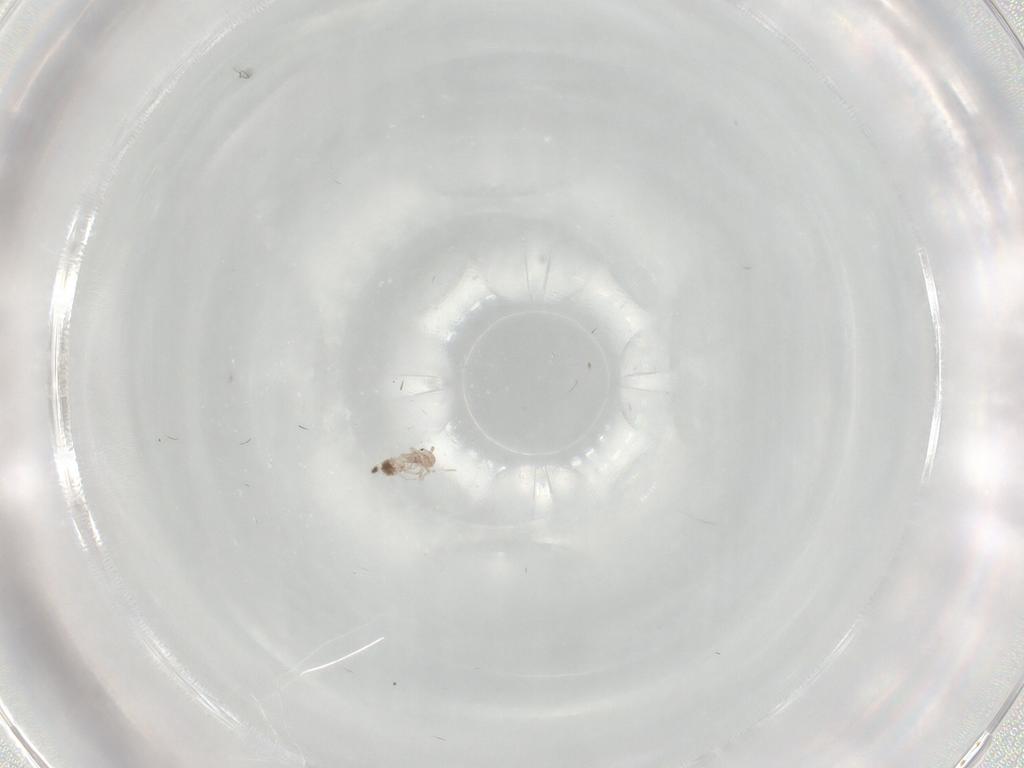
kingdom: Animalia
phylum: Arthropoda
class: Insecta
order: Psocodea
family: Lepidopsocidae
